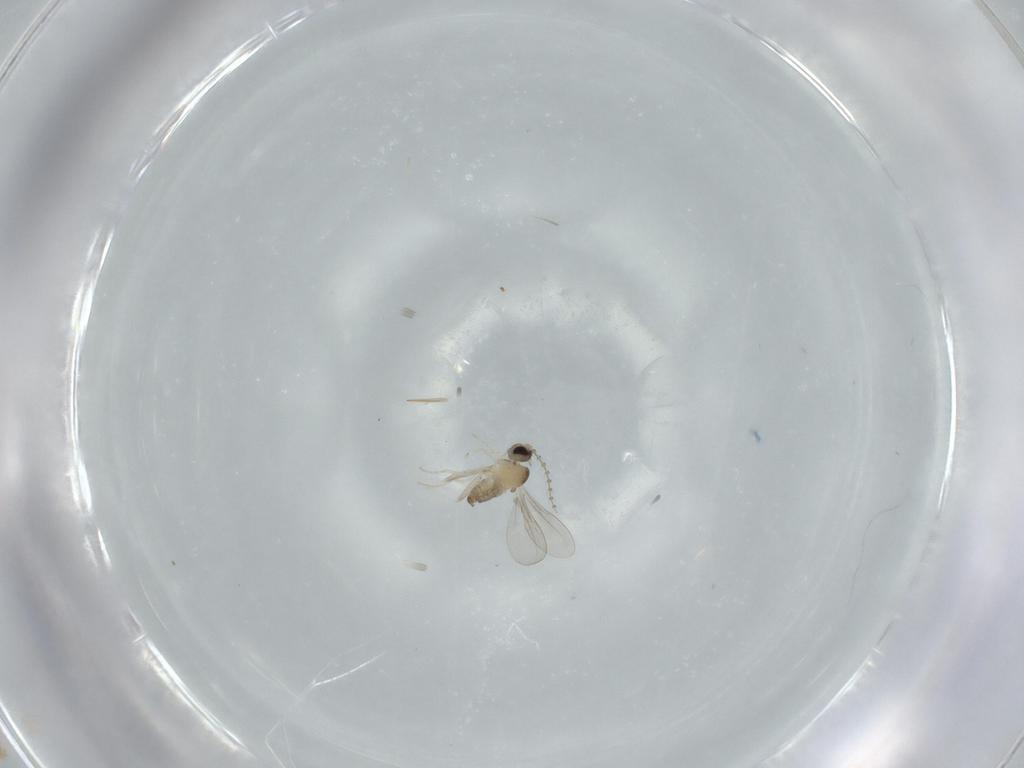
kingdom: Animalia
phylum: Arthropoda
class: Insecta
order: Diptera
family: Cecidomyiidae
